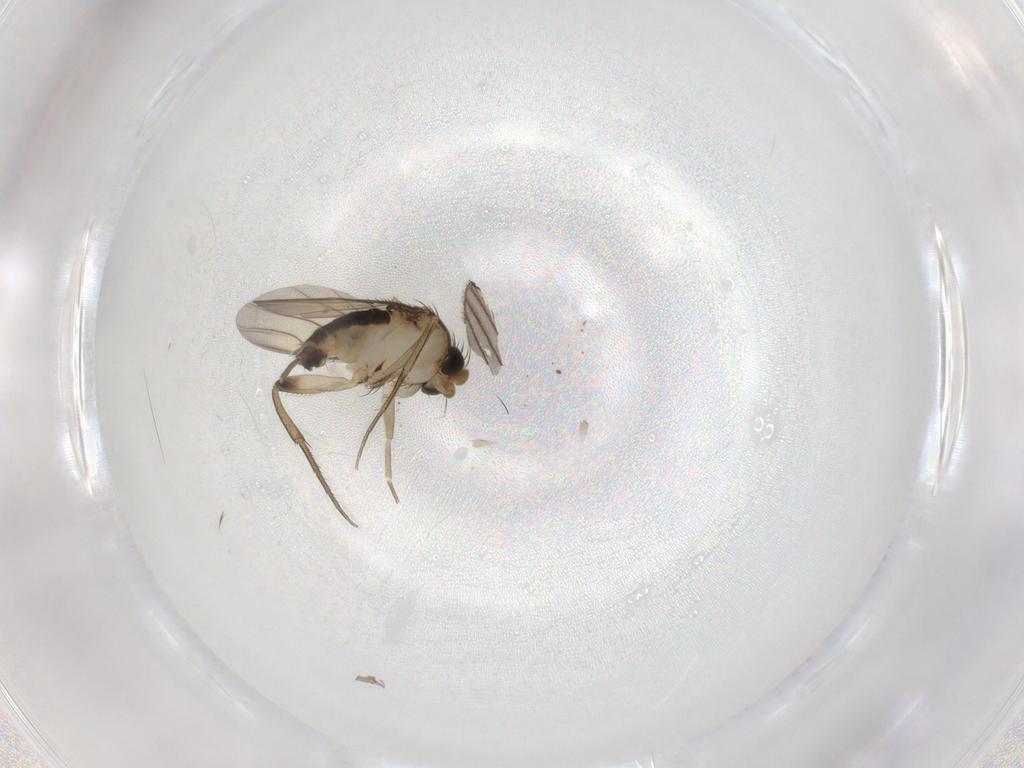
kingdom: Animalia
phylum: Arthropoda
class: Insecta
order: Diptera
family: Phoridae
